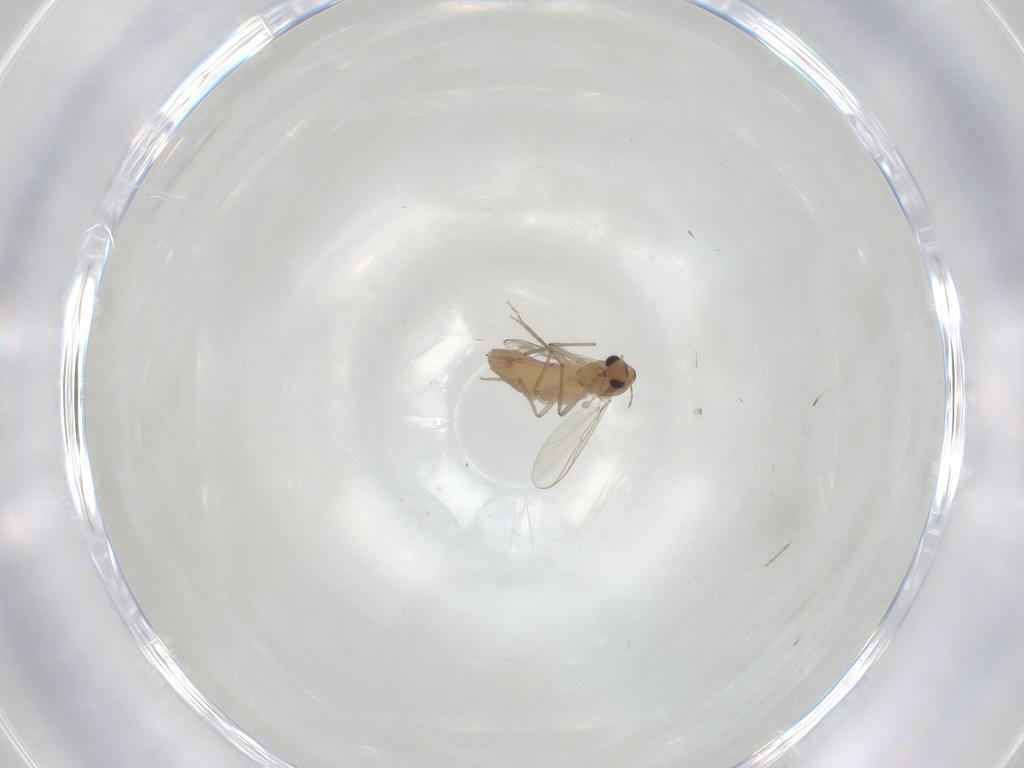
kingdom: Animalia
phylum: Arthropoda
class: Insecta
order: Diptera
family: Chironomidae
